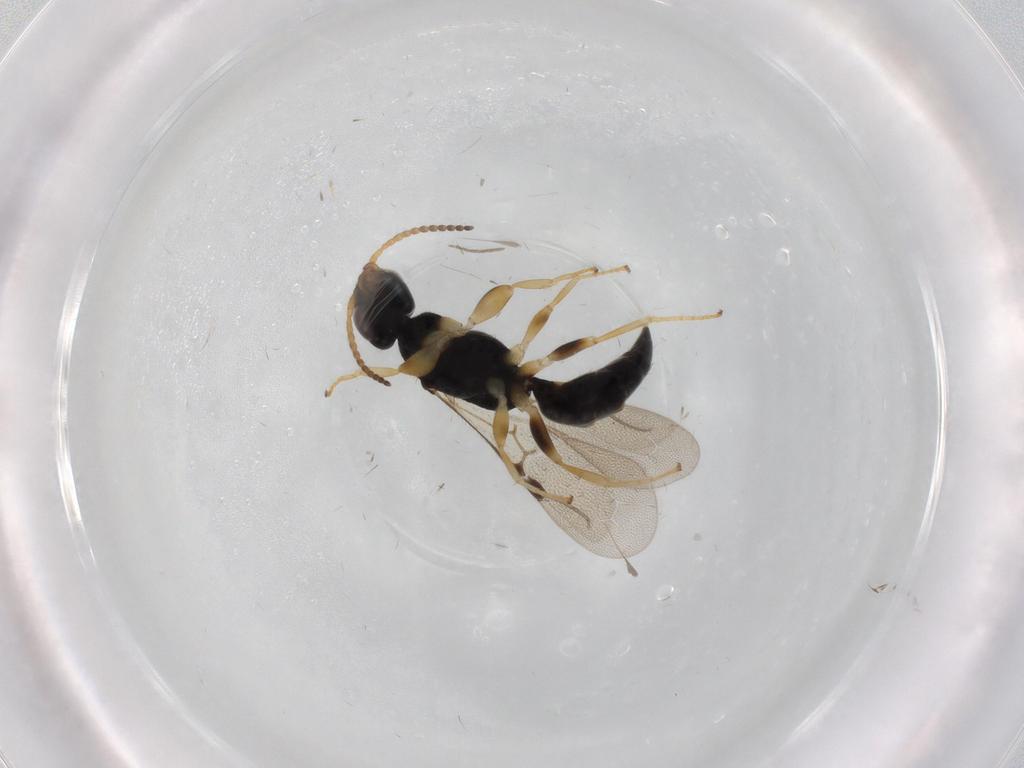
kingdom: Animalia
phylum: Arthropoda
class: Insecta
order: Hymenoptera
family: Bethylidae
